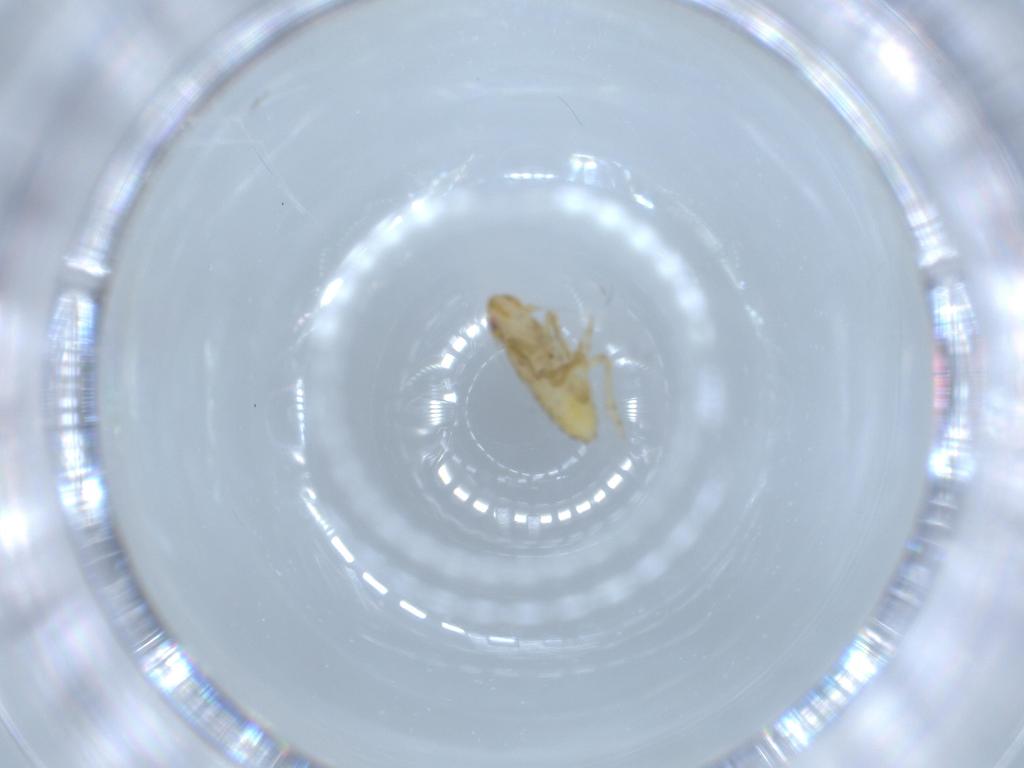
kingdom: Animalia
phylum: Arthropoda
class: Insecta
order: Hemiptera
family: Delphacidae
